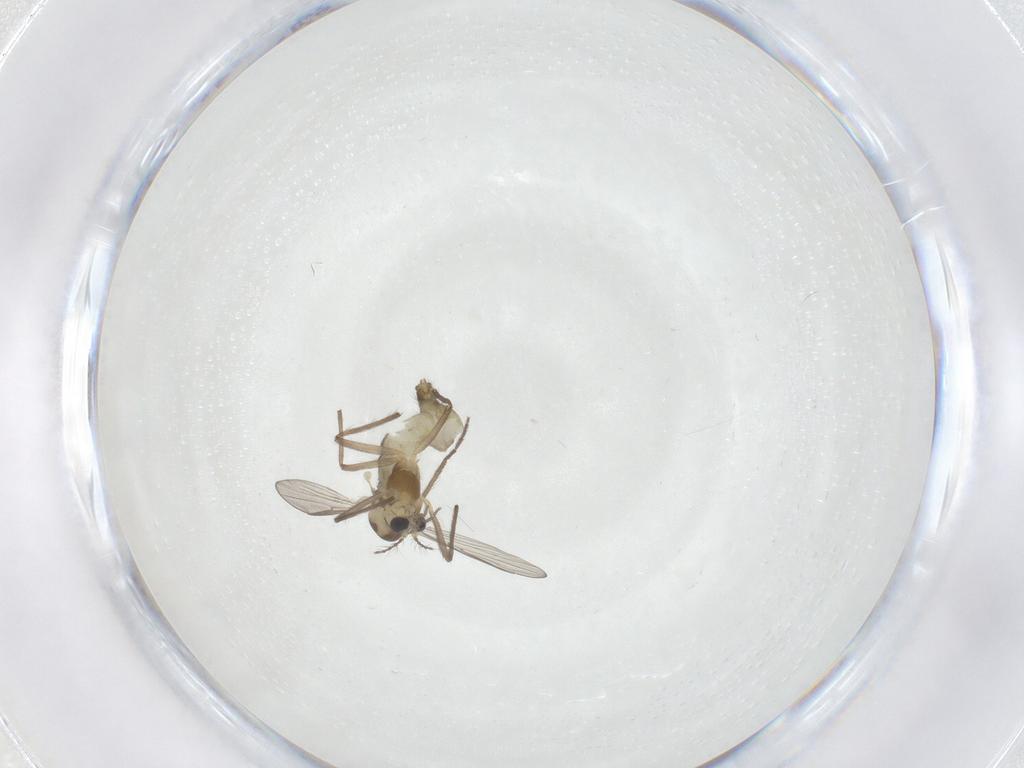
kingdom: Animalia
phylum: Arthropoda
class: Insecta
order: Diptera
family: Chironomidae
